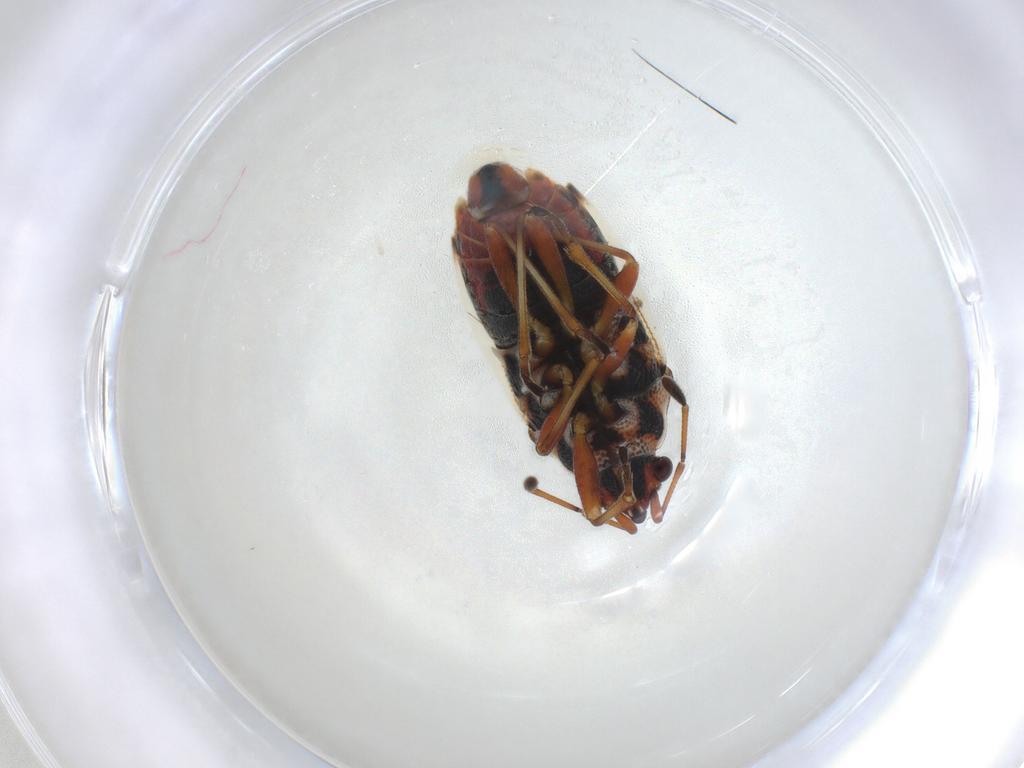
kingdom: Animalia
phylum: Arthropoda
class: Insecta
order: Hemiptera
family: Lygaeidae
